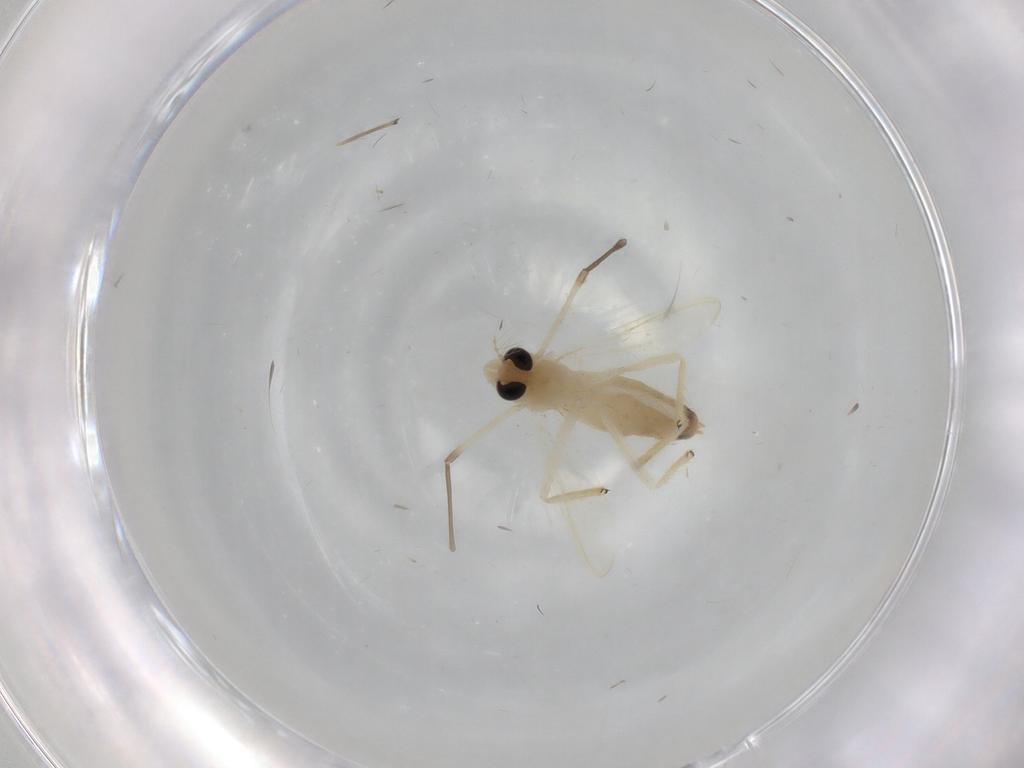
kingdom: Animalia
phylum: Arthropoda
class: Insecta
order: Diptera
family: Chironomidae
